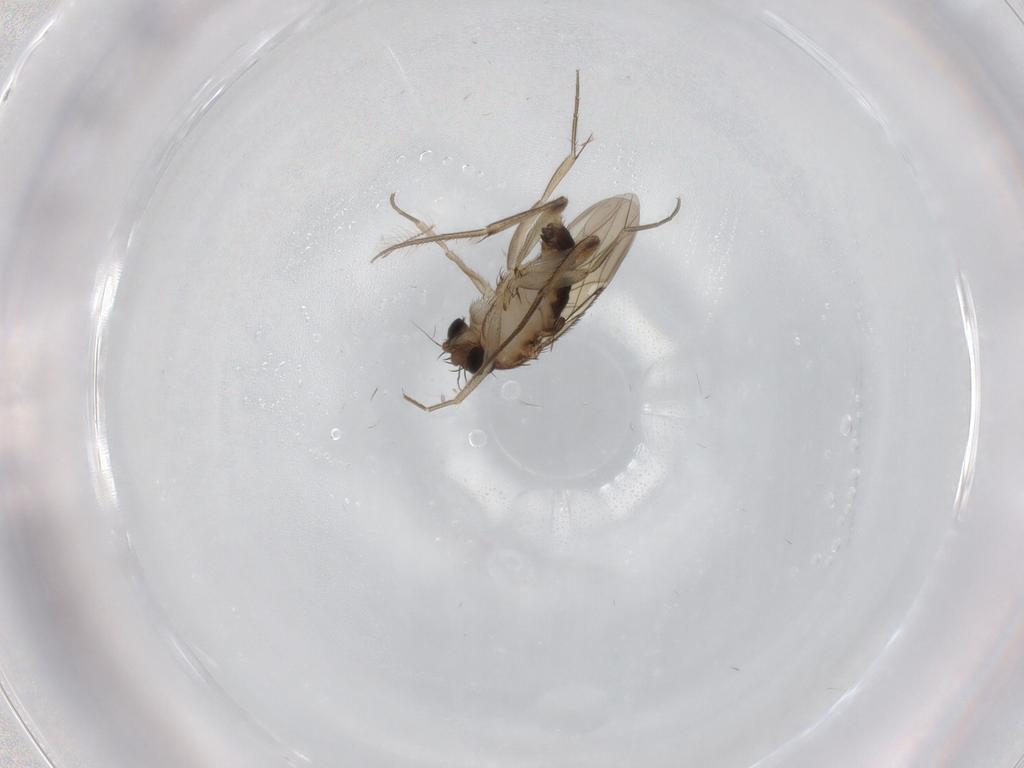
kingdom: Animalia
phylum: Arthropoda
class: Insecta
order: Diptera
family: Phoridae
